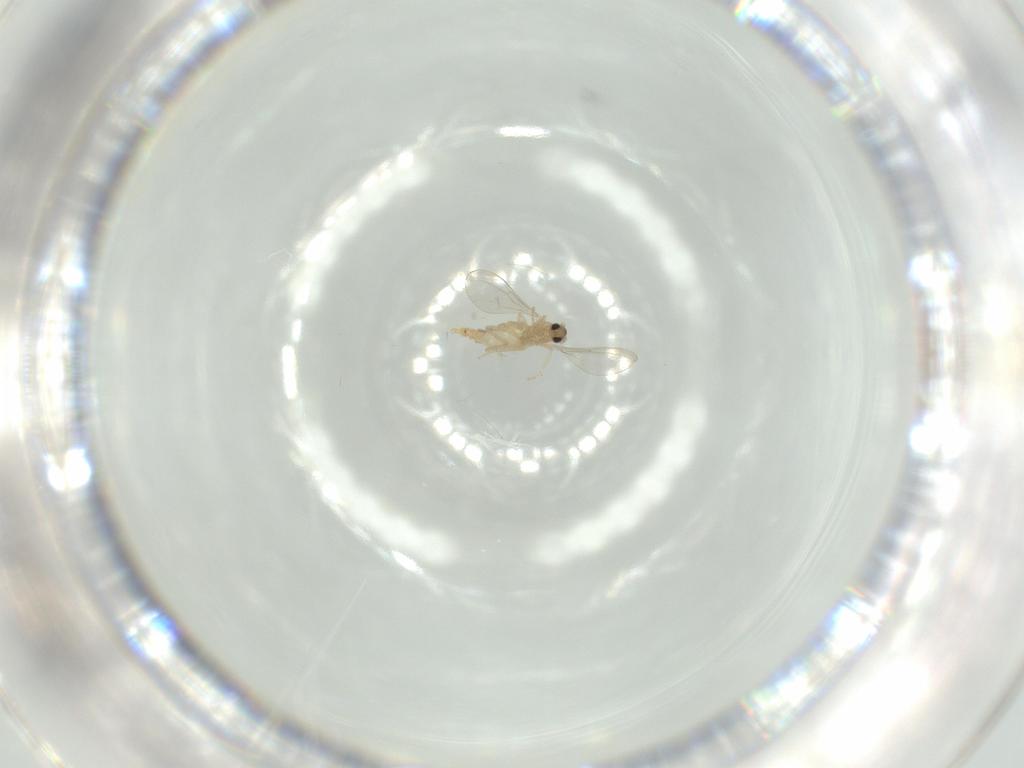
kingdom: Animalia
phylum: Arthropoda
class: Insecta
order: Diptera
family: Cecidomyiidae
